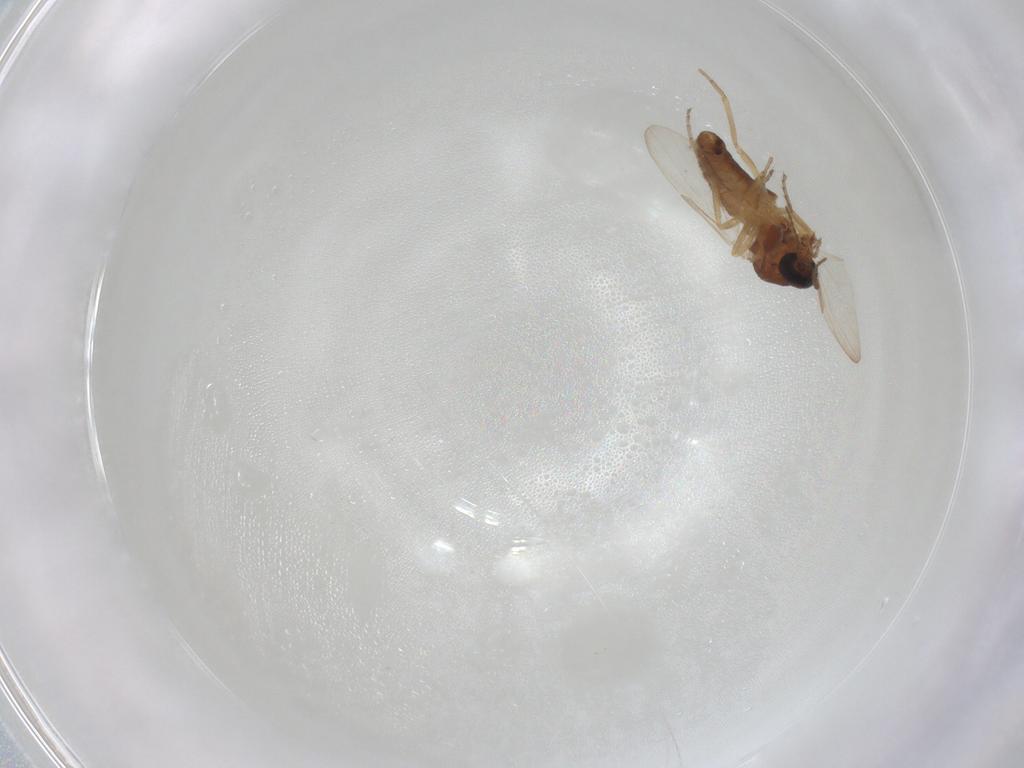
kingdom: Animalia
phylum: Arthropoda
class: Insecta
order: Diptera
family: Ceratopogonidae
